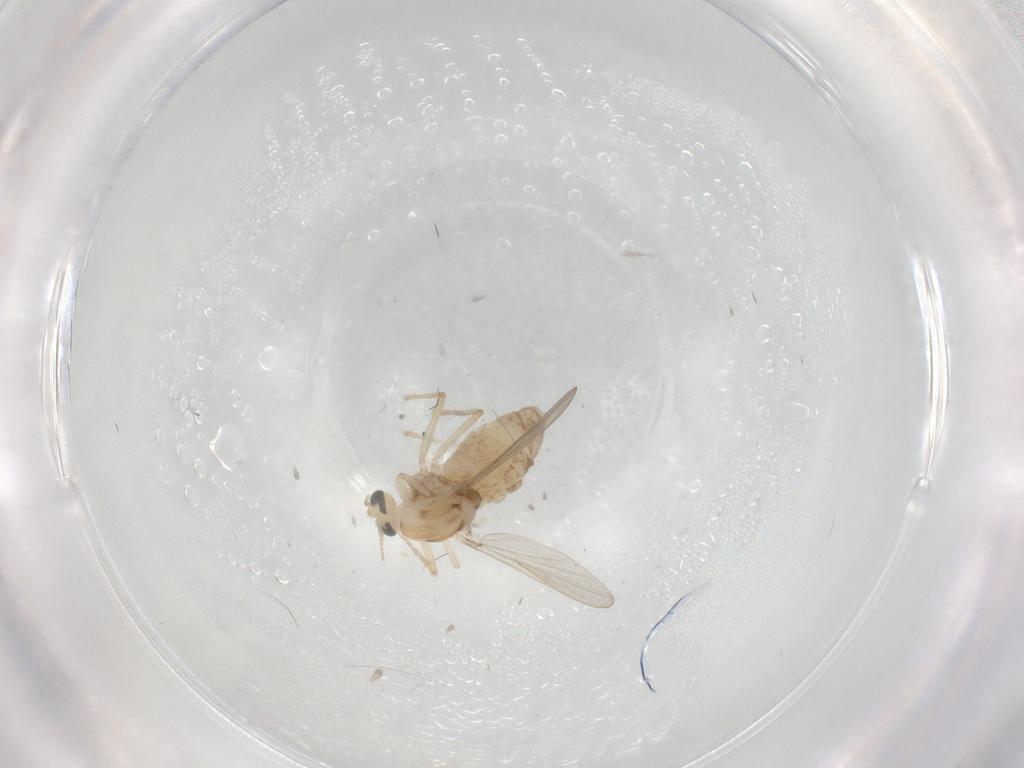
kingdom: Animalia
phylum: Arthropoda
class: Insecta
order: Diptera
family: Chironomidae
